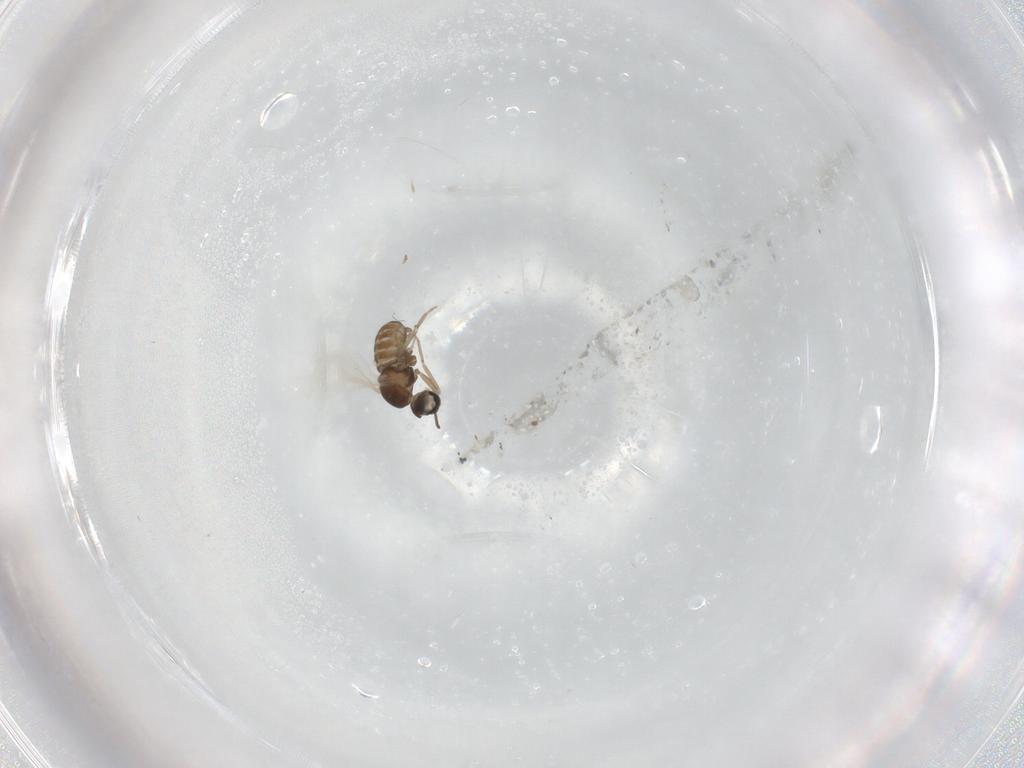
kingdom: Animalia
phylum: Arthropoda
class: Insecta
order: Diptera
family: Cecidomyiidae
